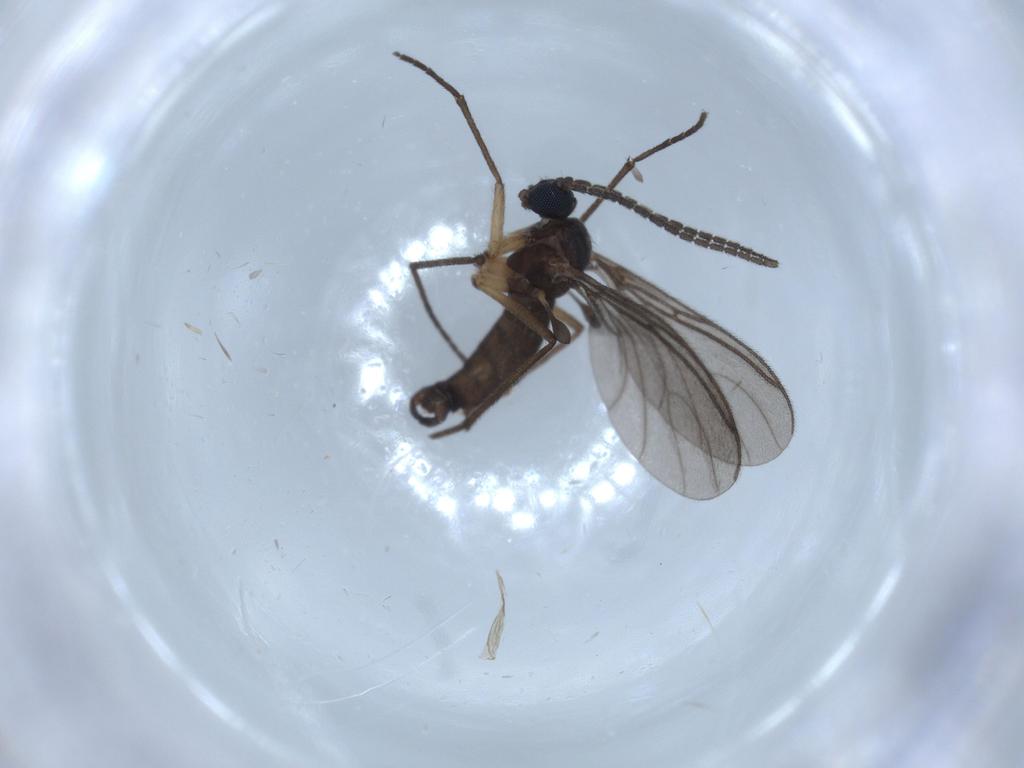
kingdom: Animalia
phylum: Arthropoda
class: Insecta
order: Diptera
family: Sciaridae
